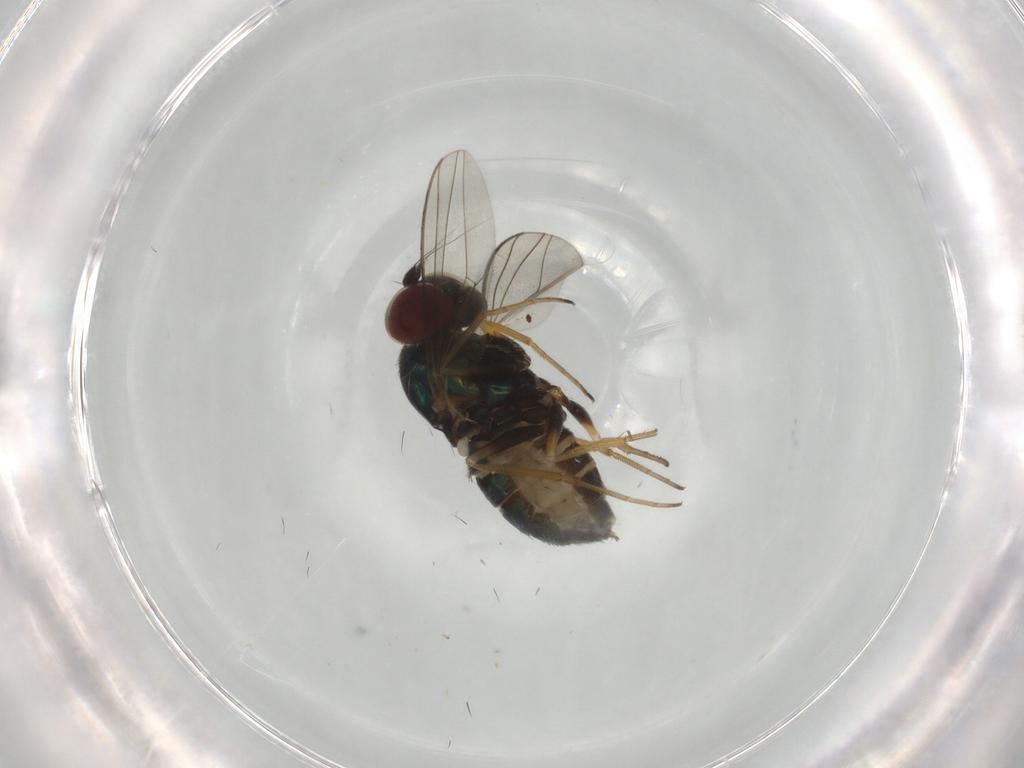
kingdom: Animalia
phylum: Arthropoda
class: Insecta
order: Diptera
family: Dolichopodidae
